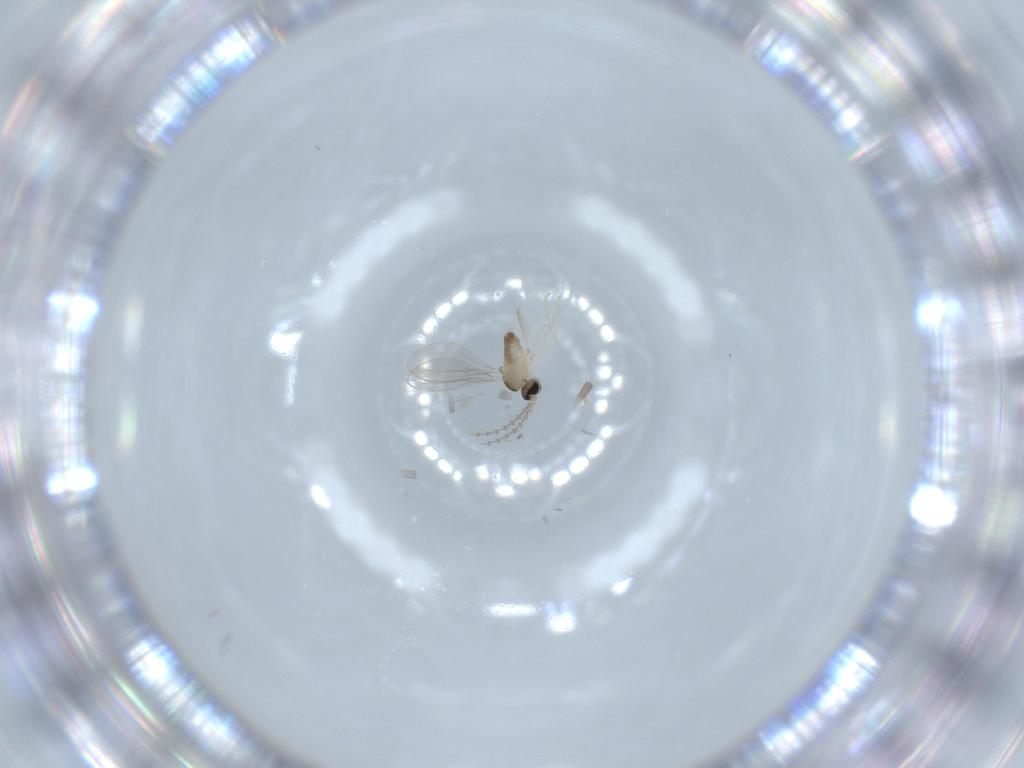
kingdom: Animalia
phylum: Arthropoda
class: Insecta
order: Diptera
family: Cecidomyiidae
